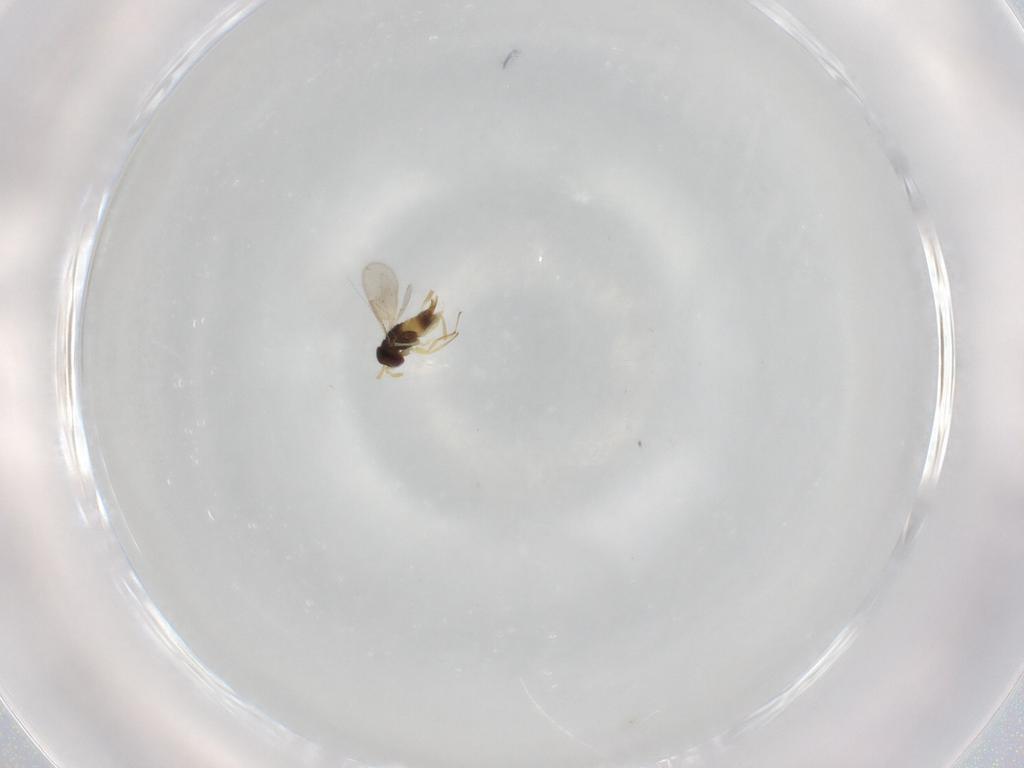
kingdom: Animalia
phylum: Arthropoda
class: Insecta
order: Hymenoptera
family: Aphelinidae
